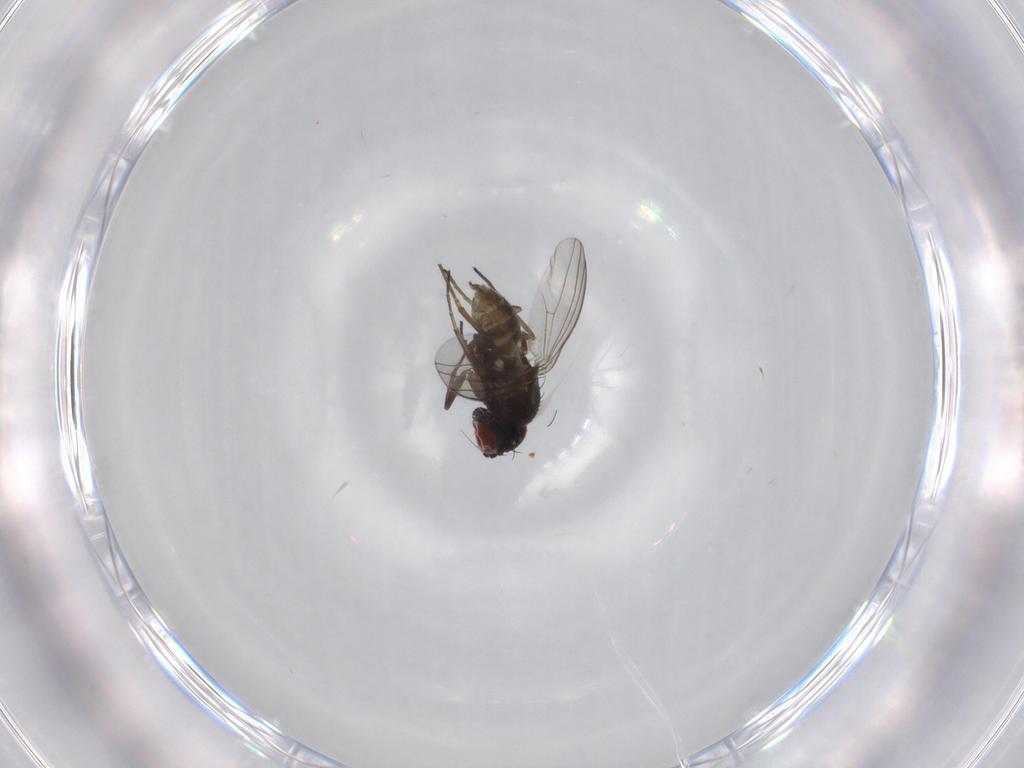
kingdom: Animalia
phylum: Arthropoda
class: Insecta
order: Diptera
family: Dolichopodidae
